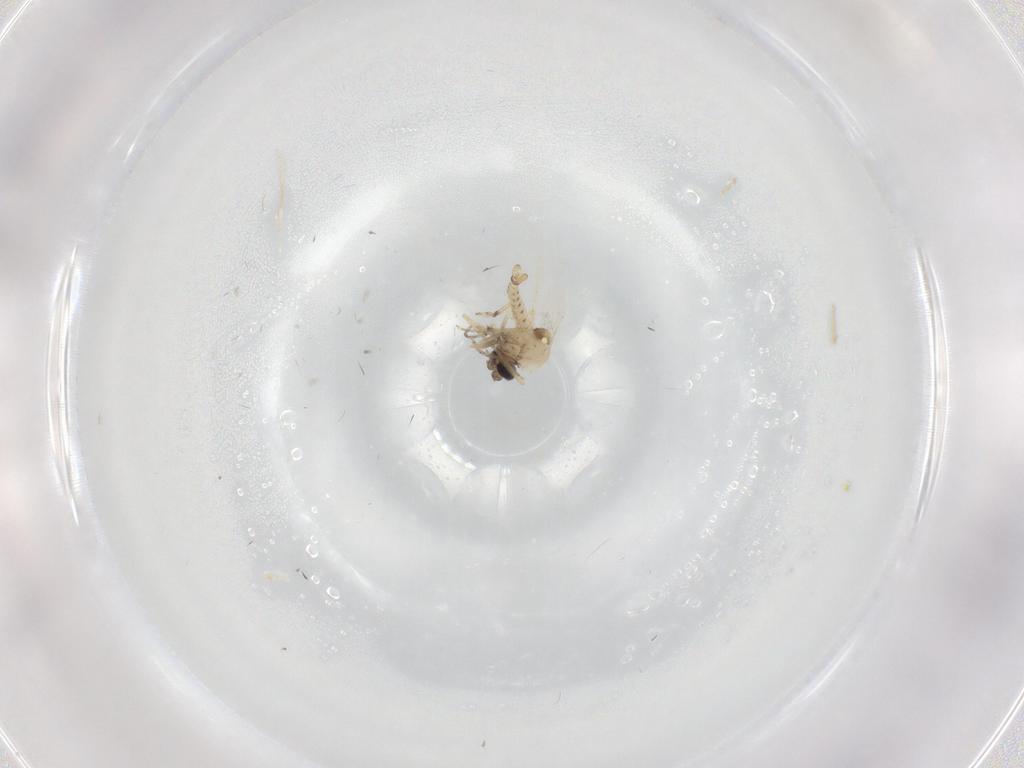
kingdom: Animalia
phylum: Arthropoda
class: Insecta
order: Diptera
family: Ceratopogonidae
